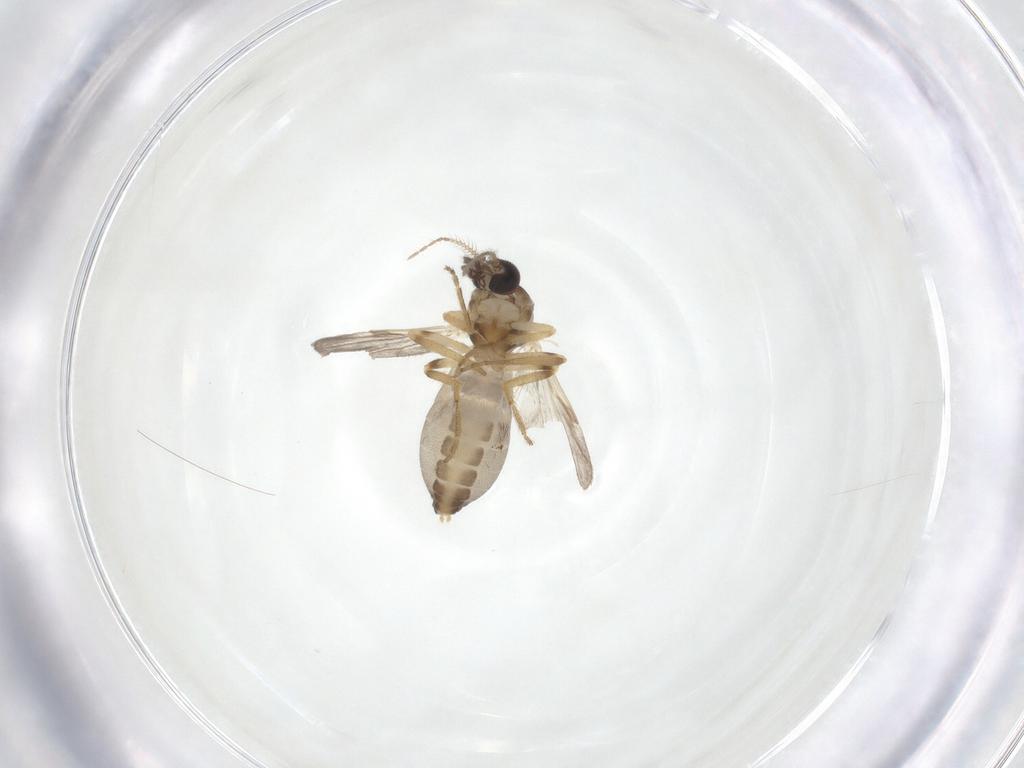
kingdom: Animalia
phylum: Arthropoda
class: Insecta
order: Diptera
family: Ceratopogonidae
